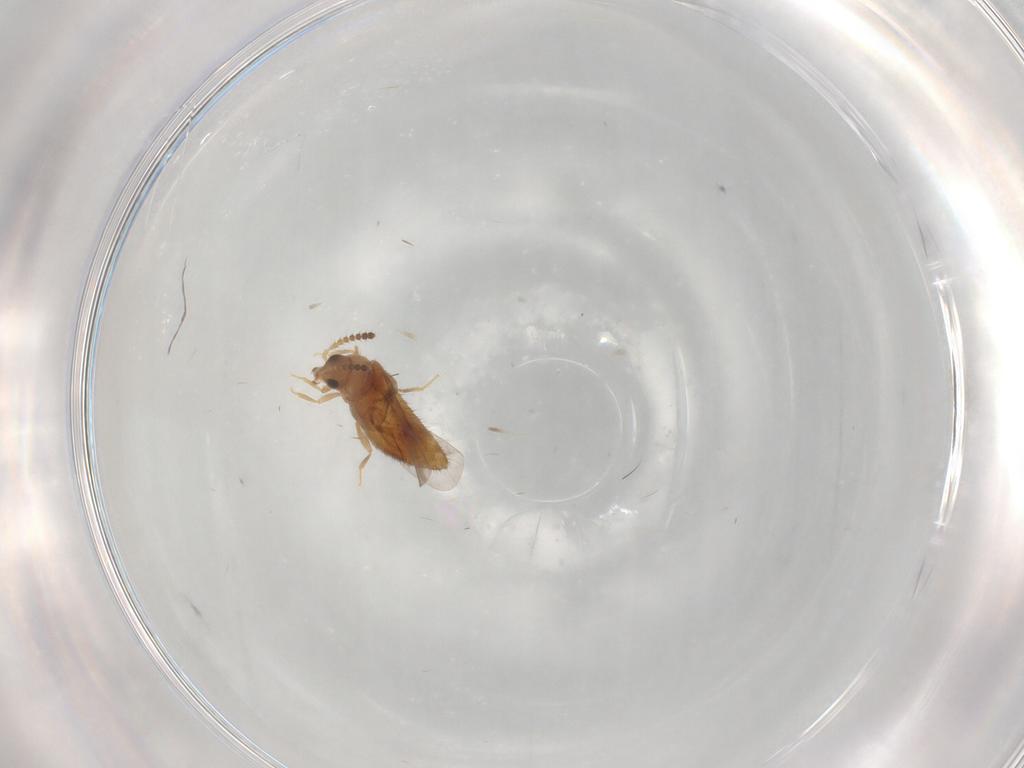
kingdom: Animalia
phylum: Arthropoda
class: Insecta
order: Coleoptera
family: Staphylinidae
